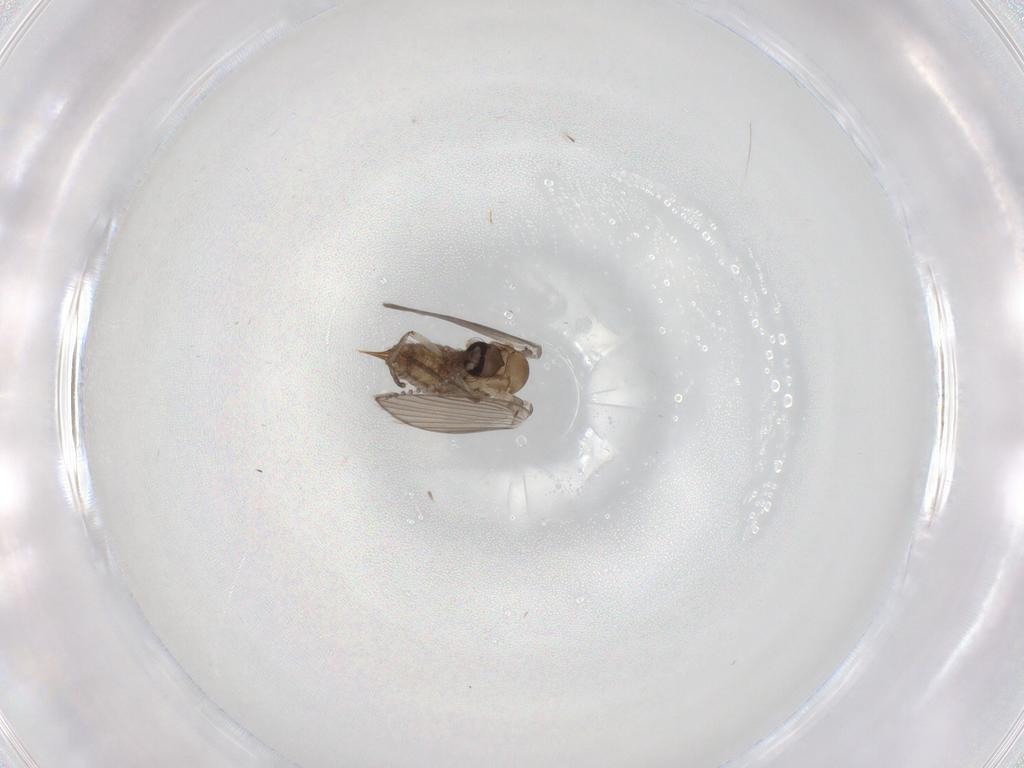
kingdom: Animalia
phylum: Arthropoda
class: Insecta
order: Diptera
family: Psychodidae
